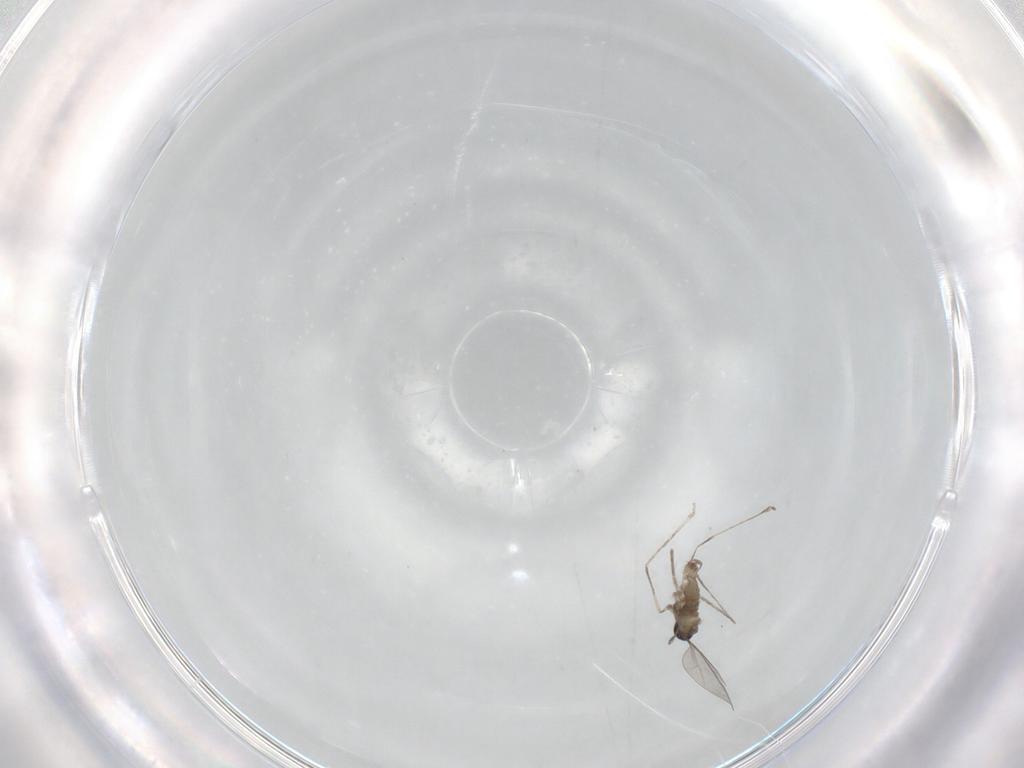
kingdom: Animalia
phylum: Arthropoda
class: Insecta
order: Diptera
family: Cecidomyiidae
